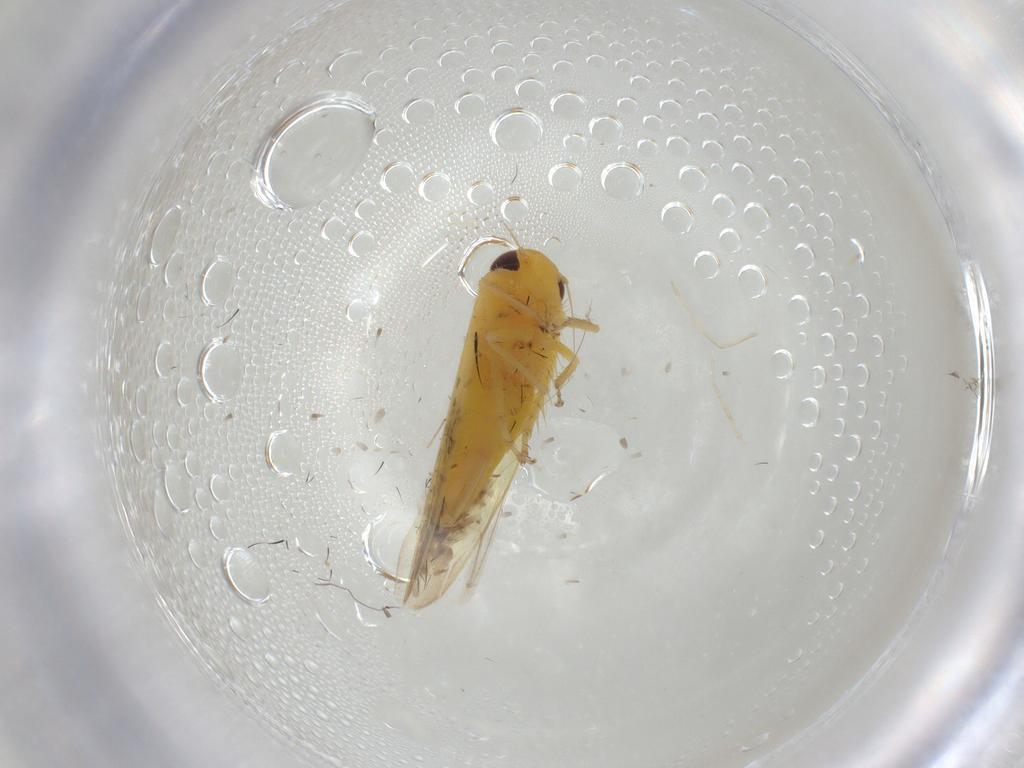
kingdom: Animalia
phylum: Arthropoda
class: Insecta
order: Hemiptera
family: Cicadellidae
